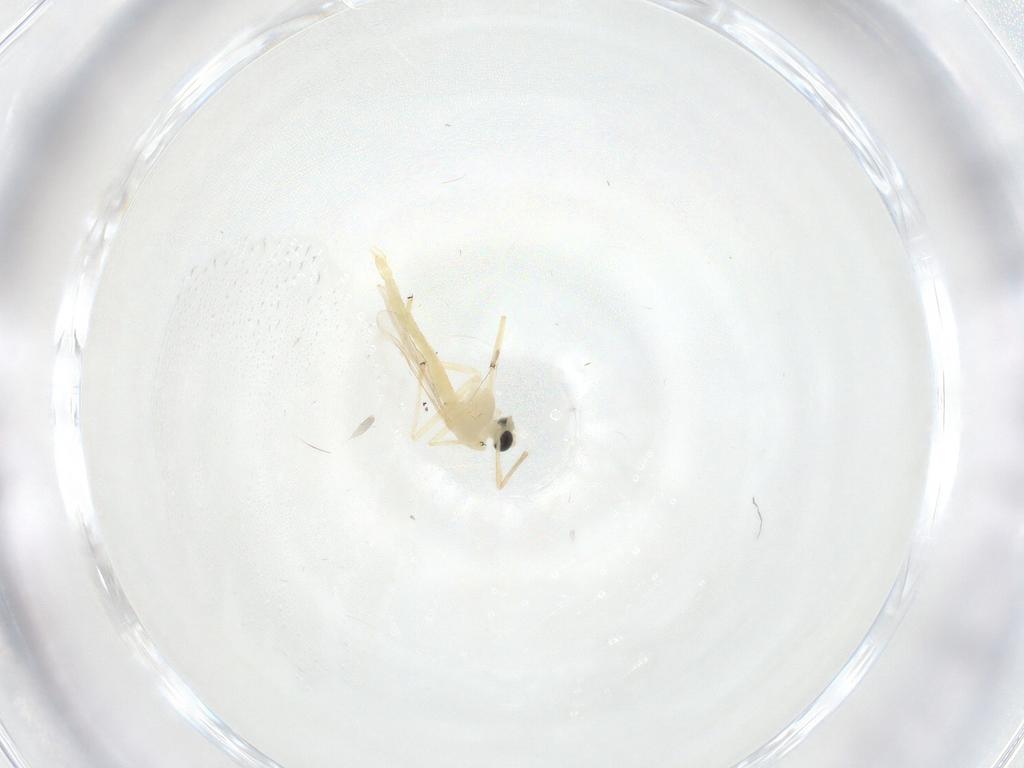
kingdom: Animalia
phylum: Arthropoda
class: Insecta
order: Diptera
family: Chironomidae
